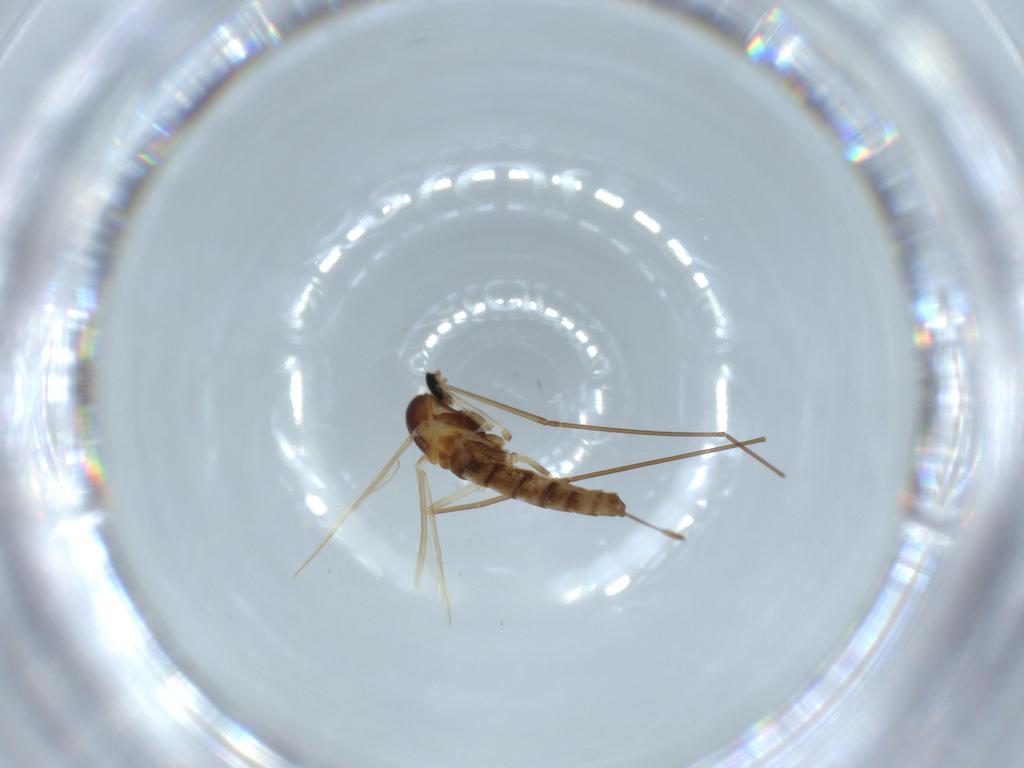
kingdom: Animalia
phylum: Arthropoda
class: Insecta
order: Diptera
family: Cecidomyiidae
